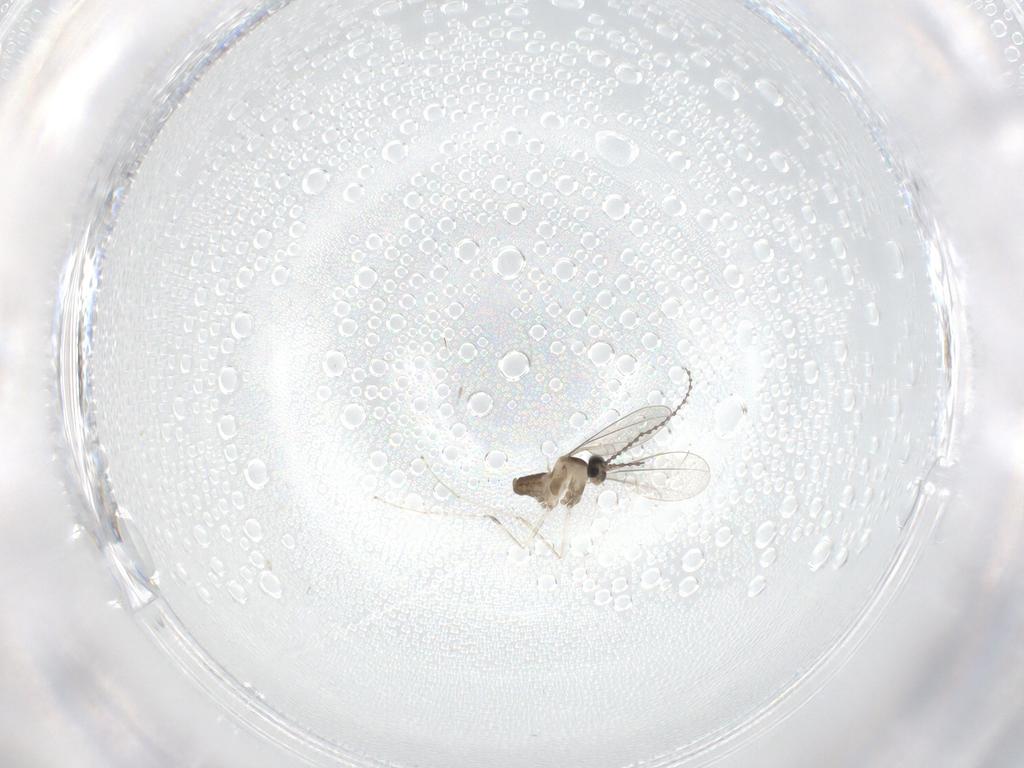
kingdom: Animalia
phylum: Arthropoda
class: Insecta
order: Diptera
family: Cecidomyiidae
